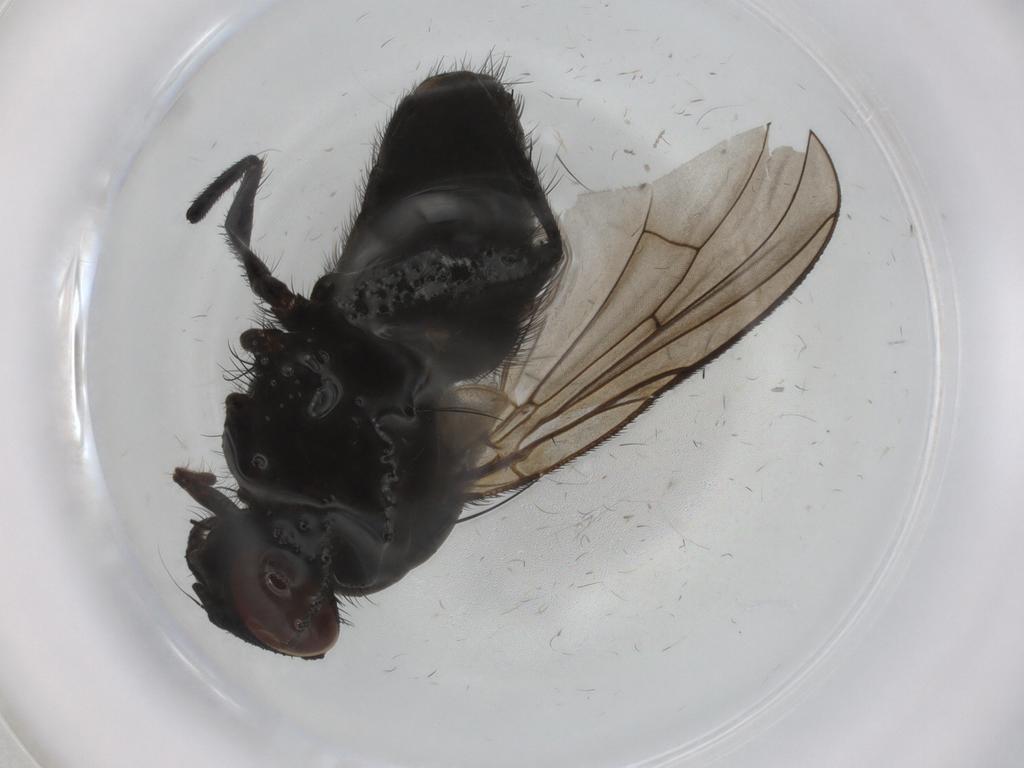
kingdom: Animalia
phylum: Arthropoda
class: Insecta
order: Diptera
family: Muscidae
